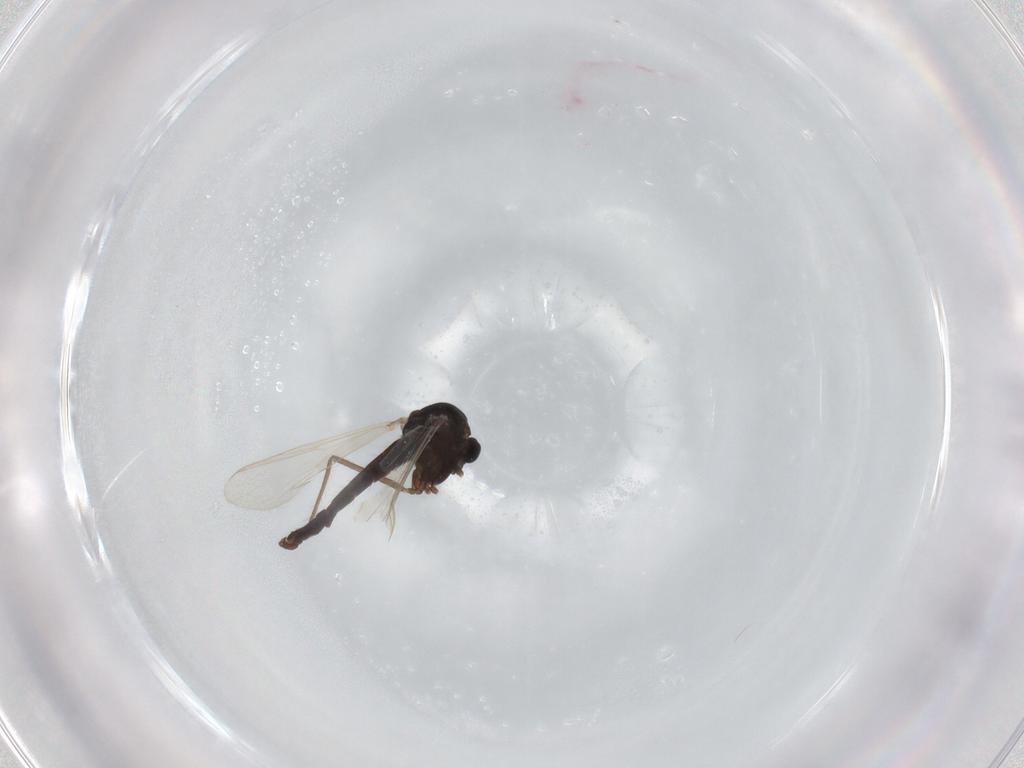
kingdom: Animalia
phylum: Arthropoda
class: Insecta
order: Diptera
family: Chironomidae
